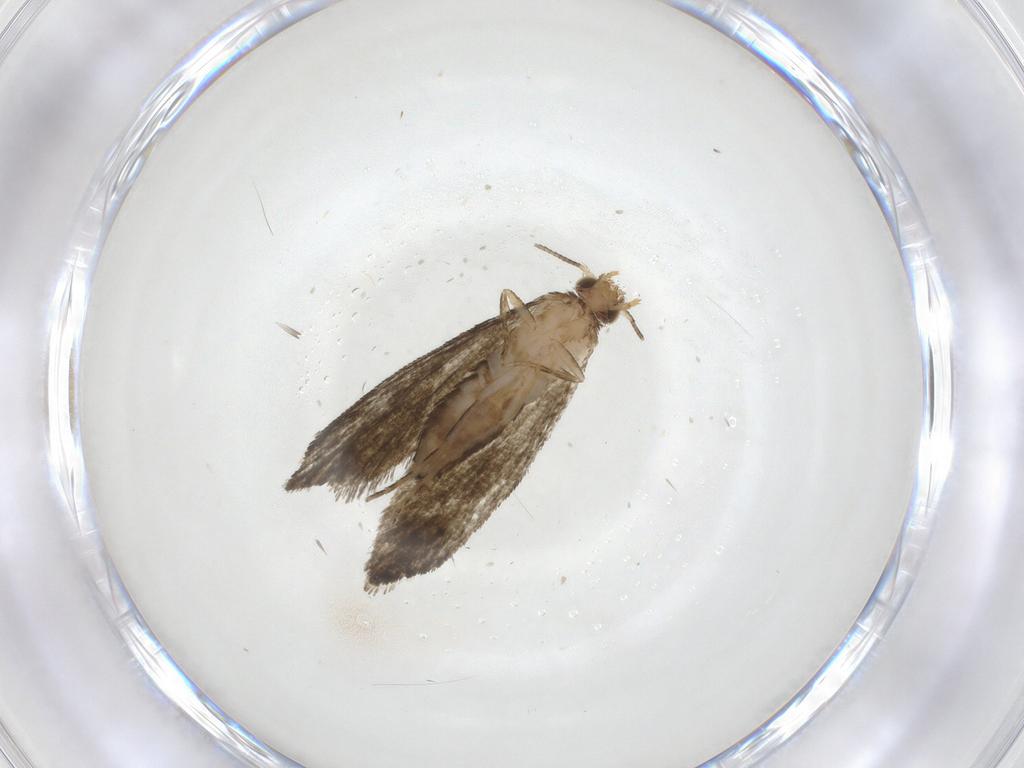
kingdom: Animalia
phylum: Arthropoda
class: Insecta
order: Lepidoptera
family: Tineidae
